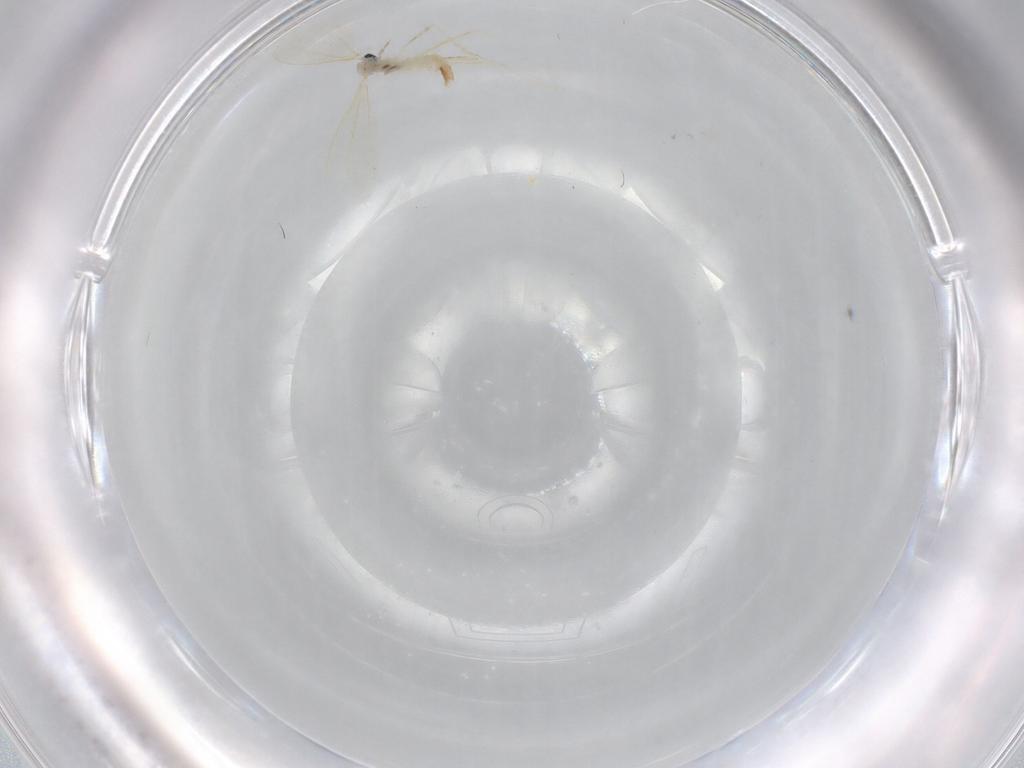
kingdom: Animalia
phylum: Arthropoda
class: Insecta
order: Diptera
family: Cecidomyiidae
